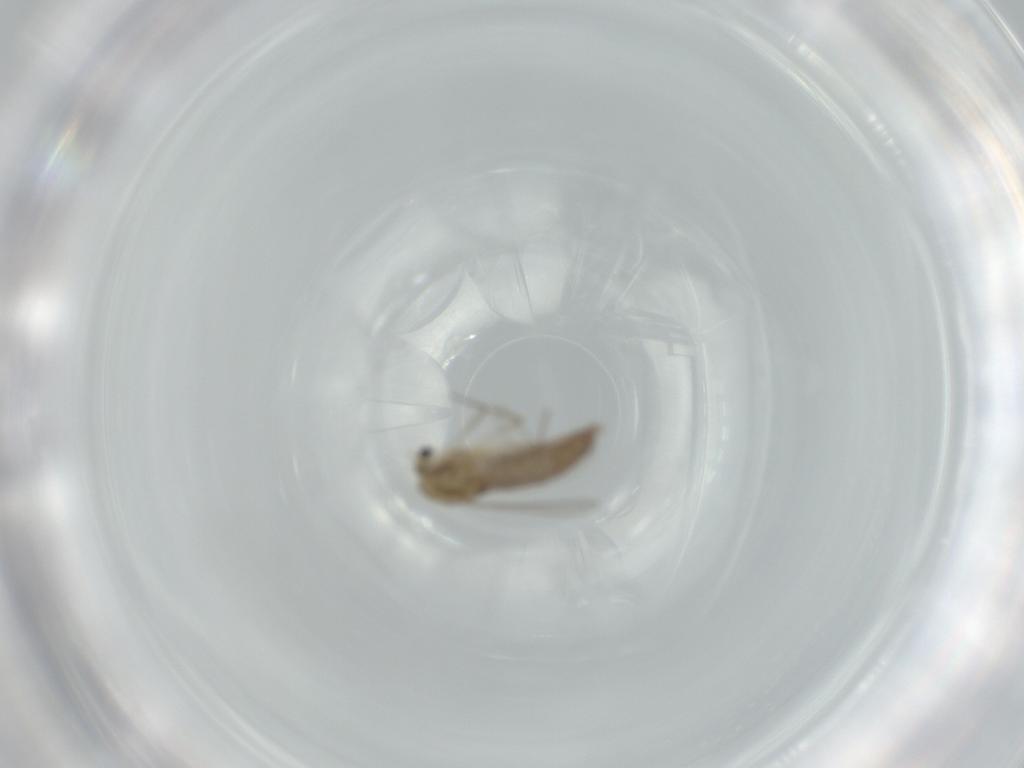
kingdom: Animalia
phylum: Arthropoda
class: Insecta
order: Diptera
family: Chironomidae
